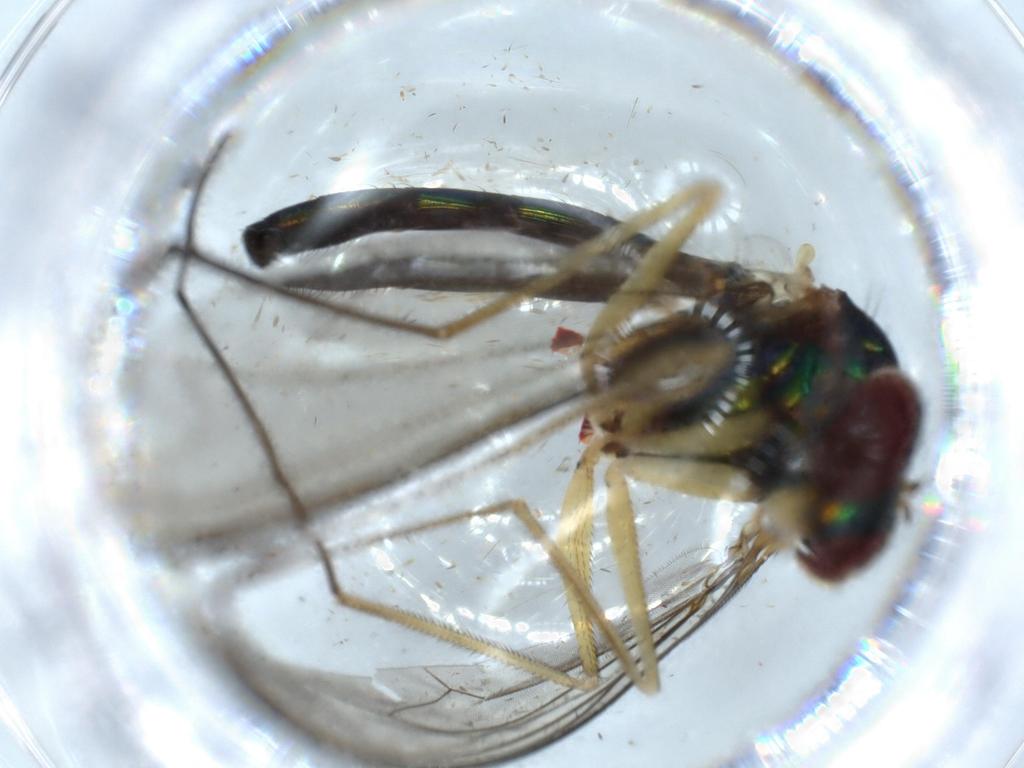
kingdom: Animalia
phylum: Arthropoda
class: Insecta
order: Diptera
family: Dolichopodidae
